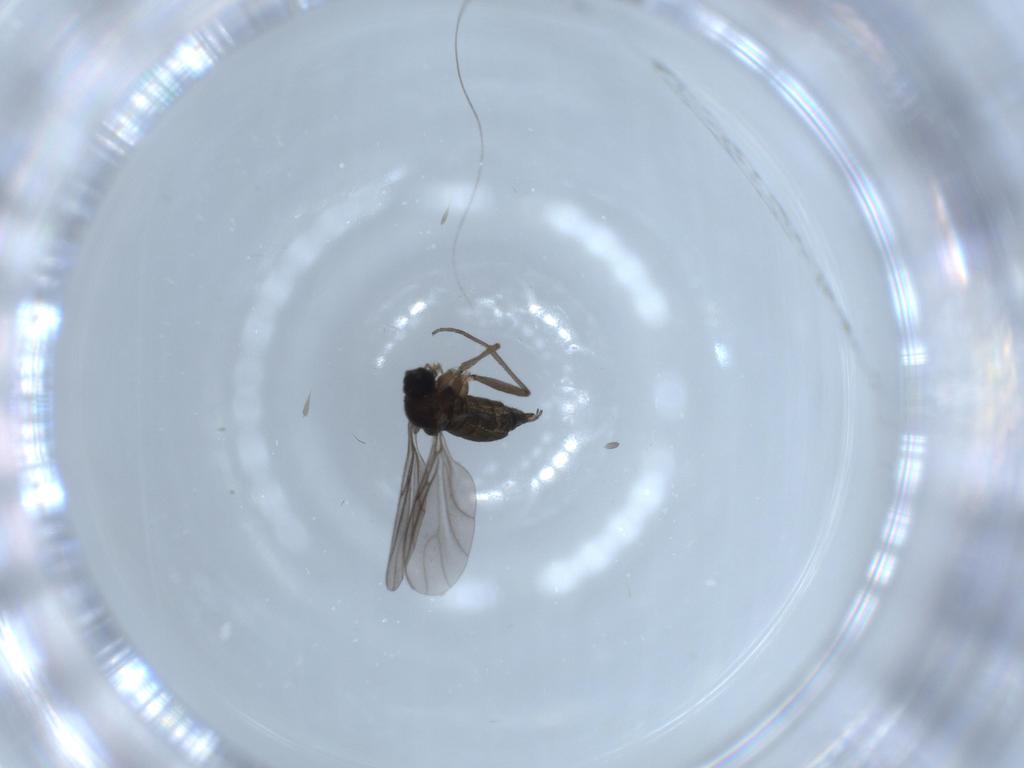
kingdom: Animalia
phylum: Arthropoda
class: Insecta
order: Diptera
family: Sciaridae
